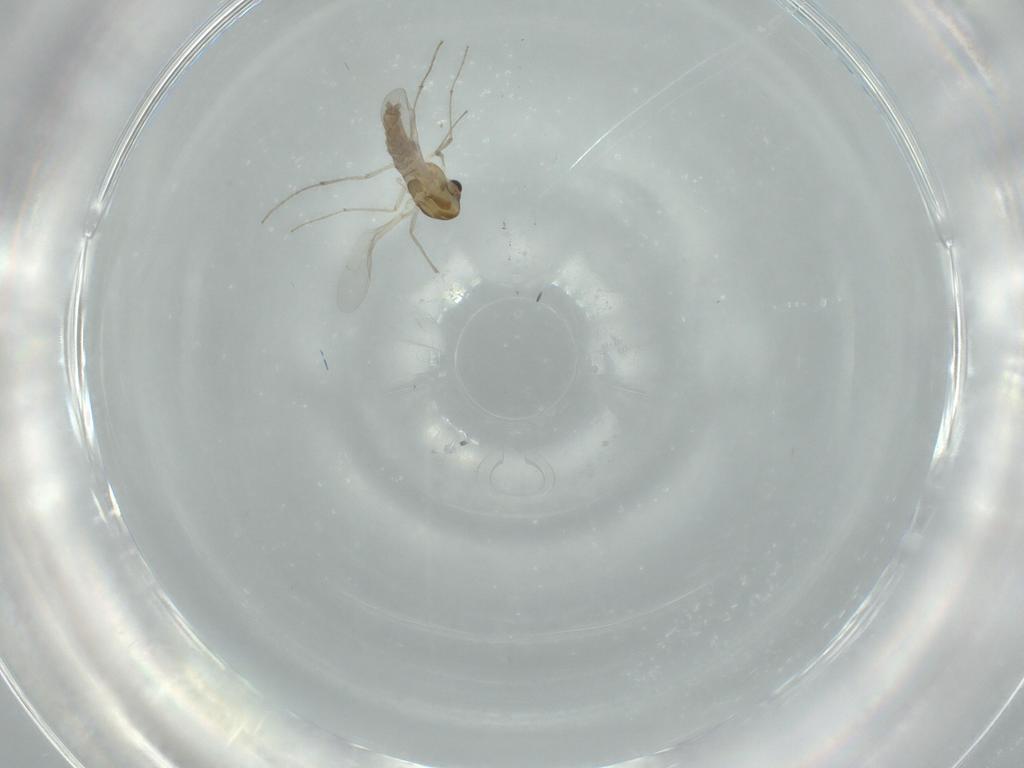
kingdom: Animalia
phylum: Arthropoda
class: Insecta
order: Diptera
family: Chironomidae
